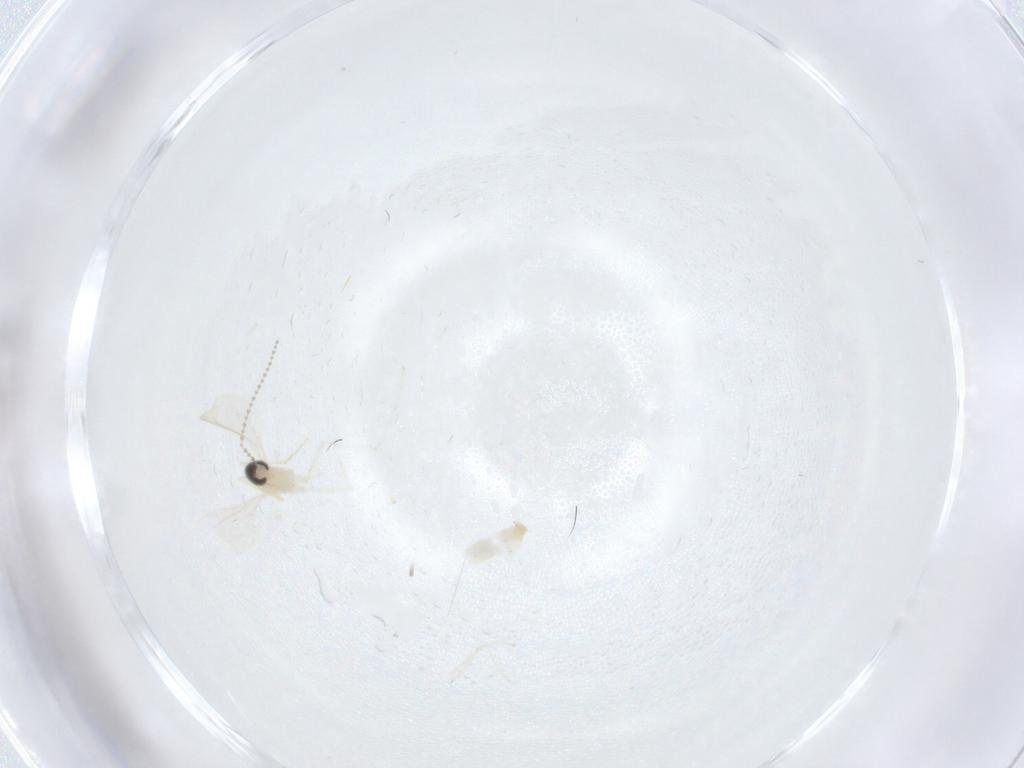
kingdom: Animalia
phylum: Arthropoda
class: Insecta
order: Diptera
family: Cecidomyiidae
